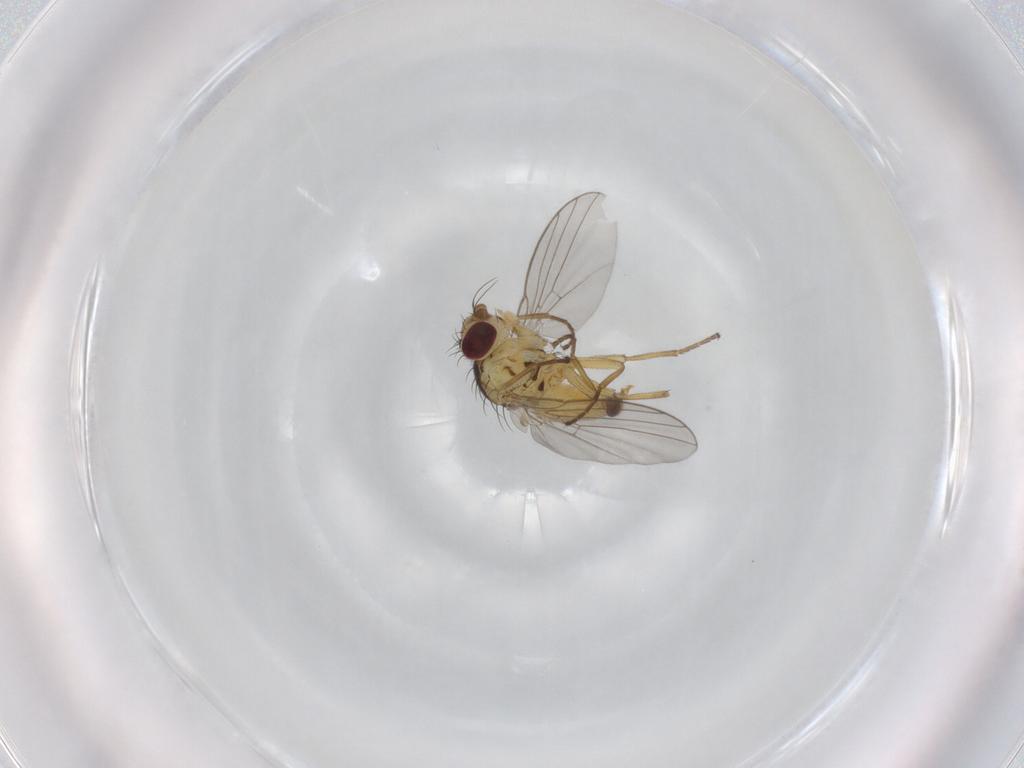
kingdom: Animalia
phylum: Arthropoda
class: Insecta
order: Diptera
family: Agromyzidae
